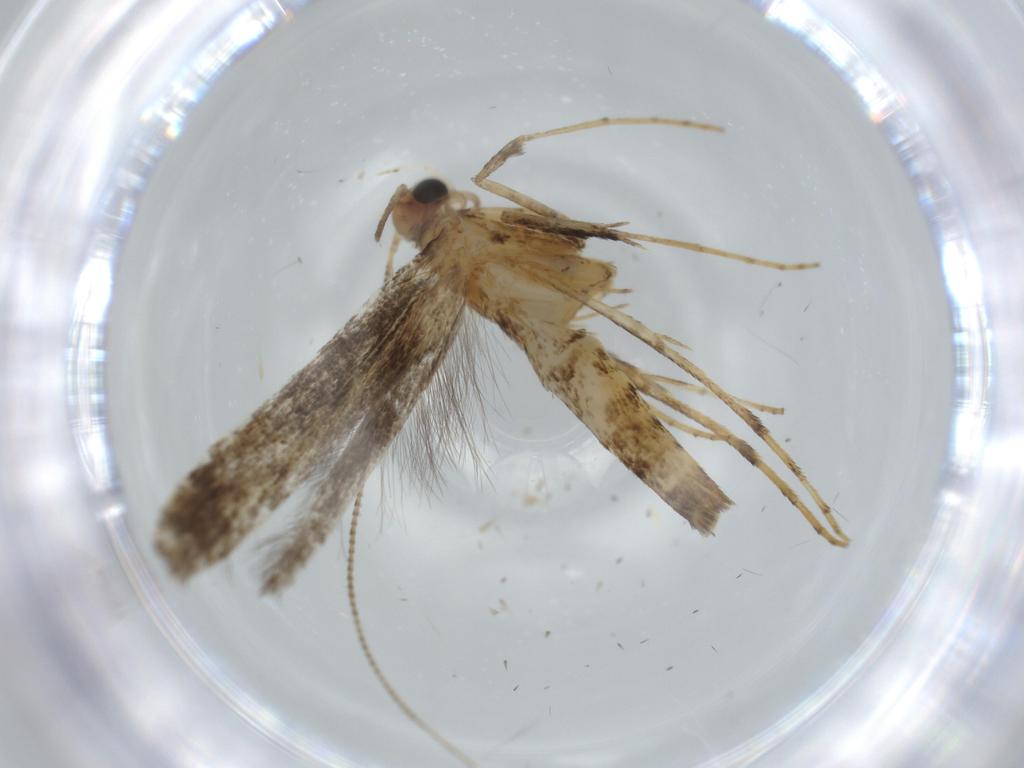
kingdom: Animalia
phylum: Arthropoda
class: Insecta
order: Lepidoptera
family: Gracillariidae
